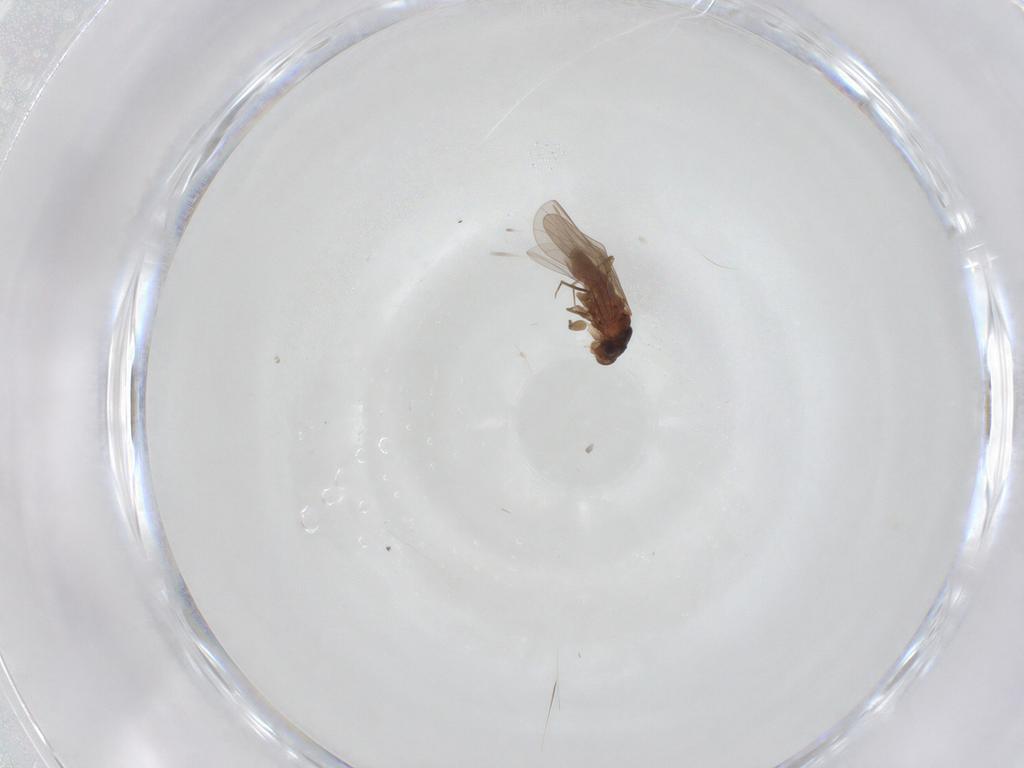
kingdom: Animalia
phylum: Arthropoda
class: Insecta
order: Psocodea
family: Lepidopsocidae
